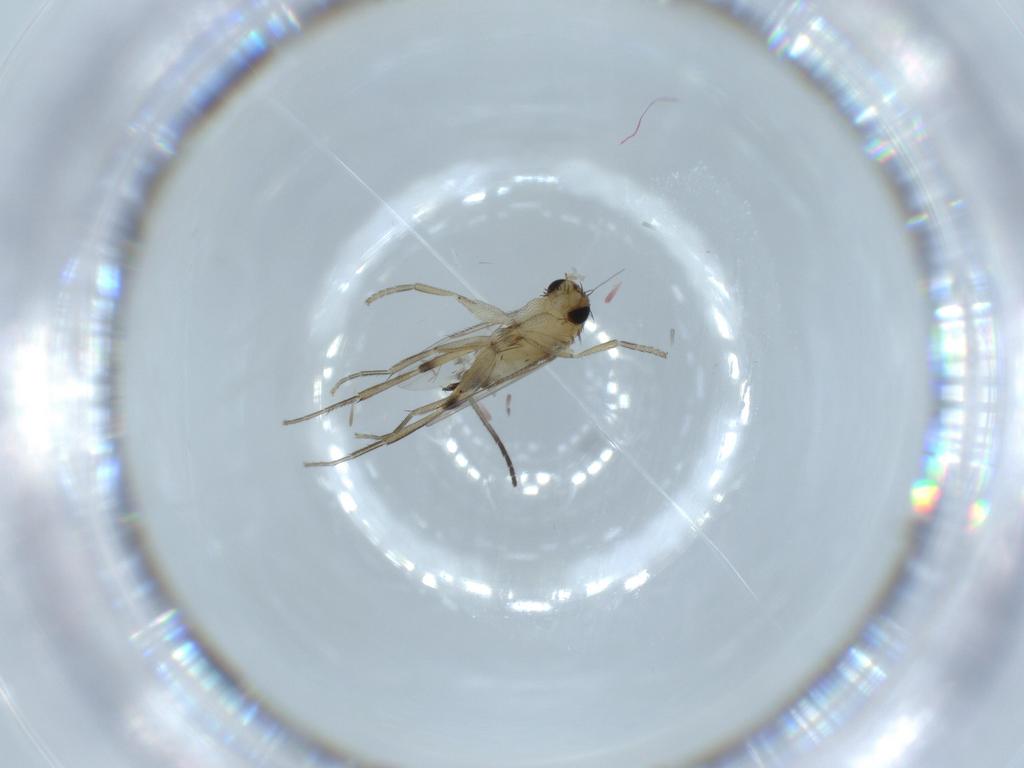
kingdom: Animalia
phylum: Arthropoda
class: Insecta
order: Diptera
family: Phoridae
